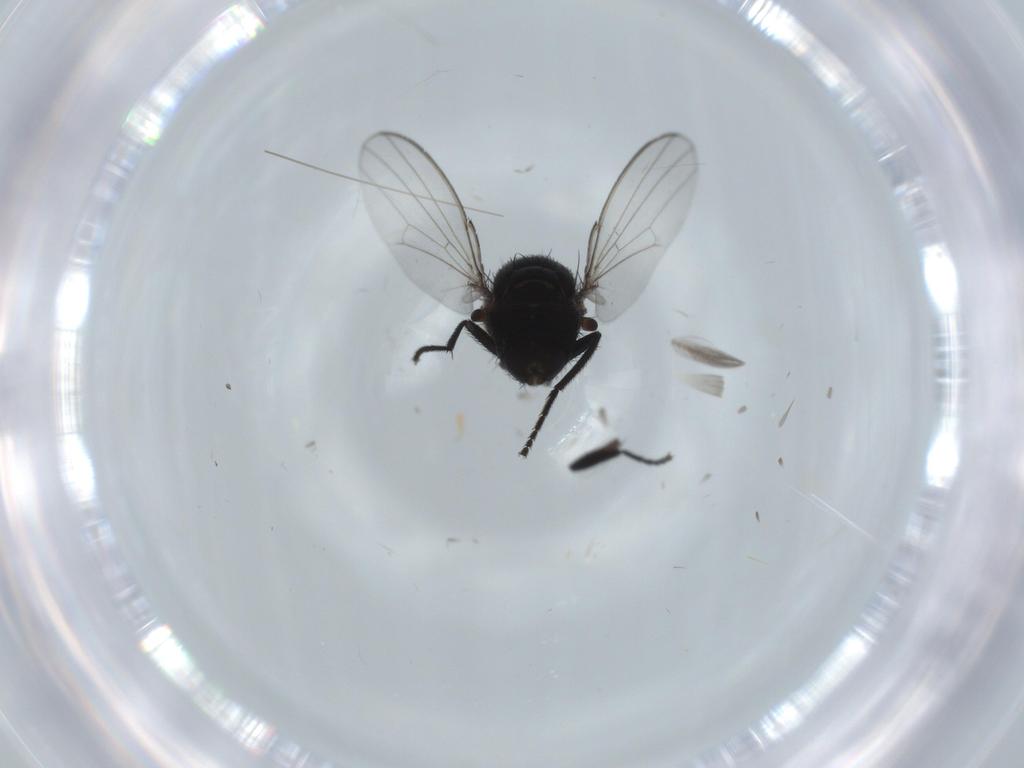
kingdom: Animalia
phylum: Arthropoda
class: Insecta
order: Diptera
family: Milichiidae
